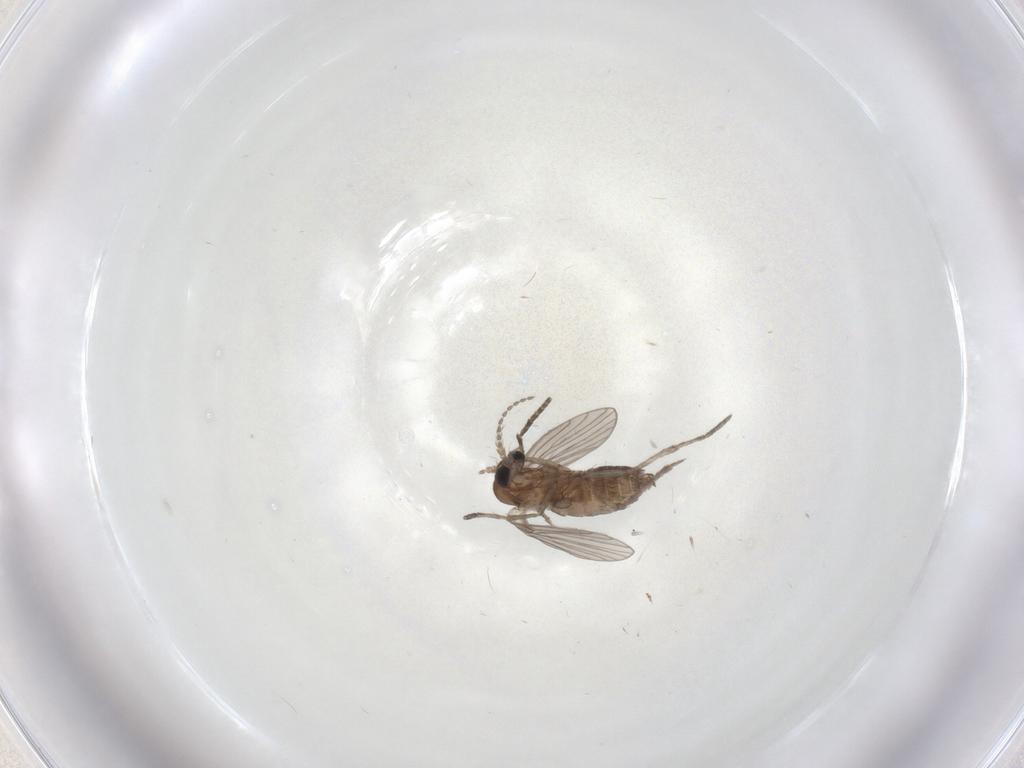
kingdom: Animalia
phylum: Arthropoda
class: Insecta
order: Diptera
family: Psychodidae
